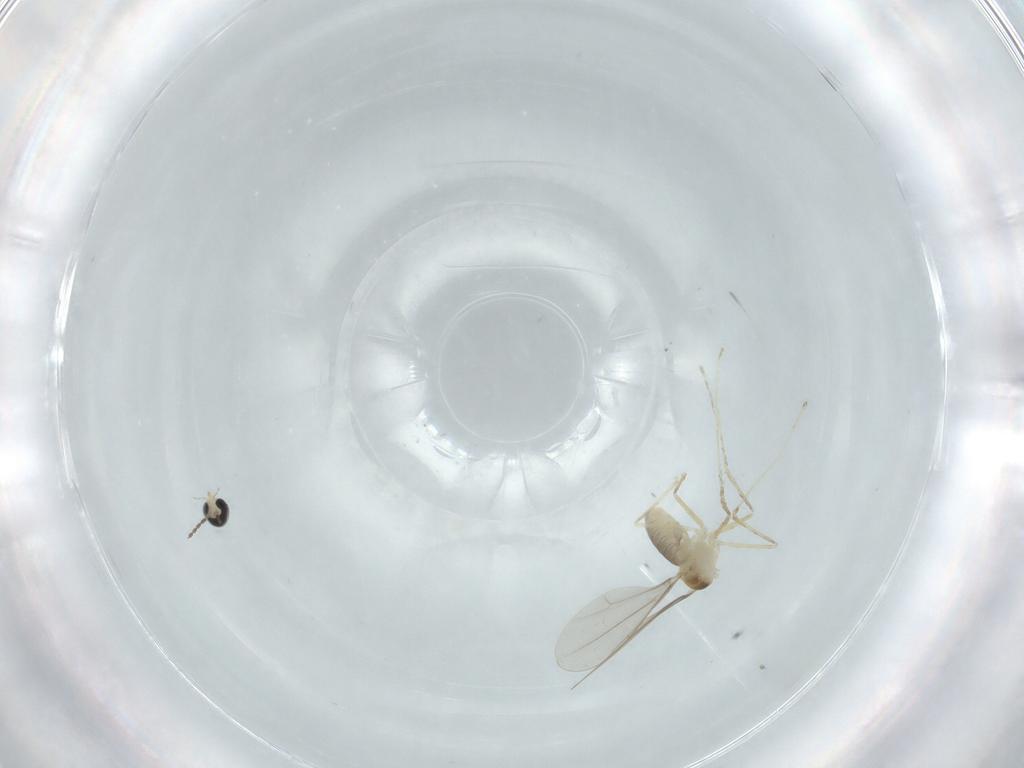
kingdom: Animalia
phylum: Arthropoda
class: Insecta
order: Diptera
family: Cecidomyiidae
